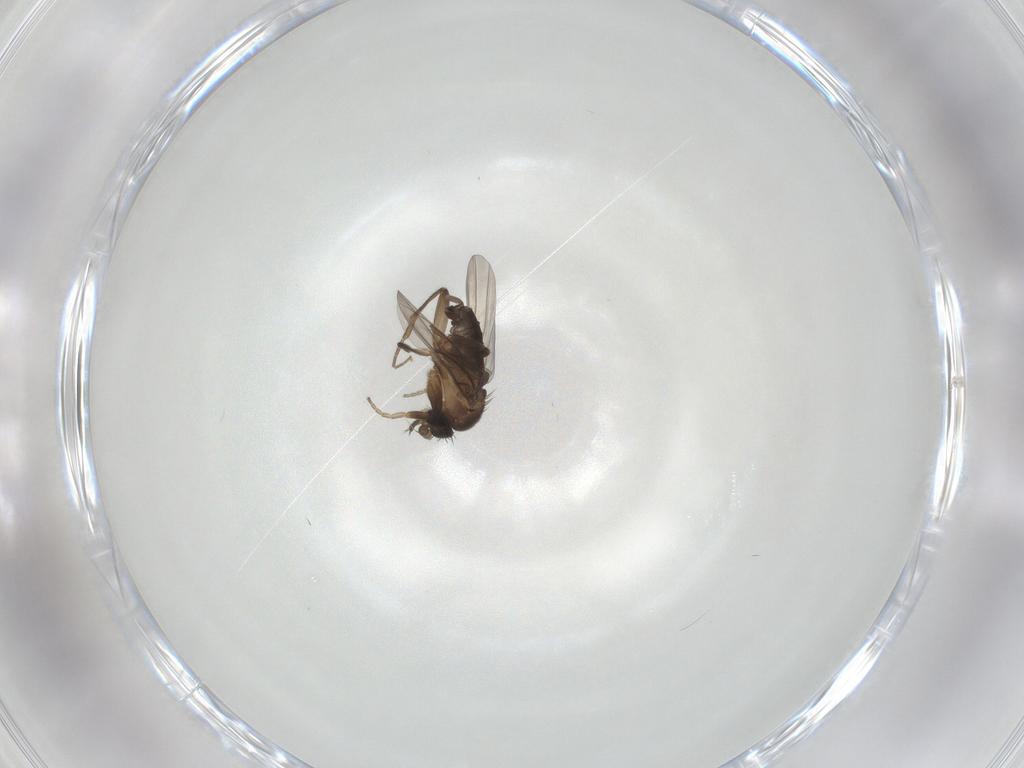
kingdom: Animalia
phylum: Arthropoda
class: Insecta
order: Diptera
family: Phoridae
